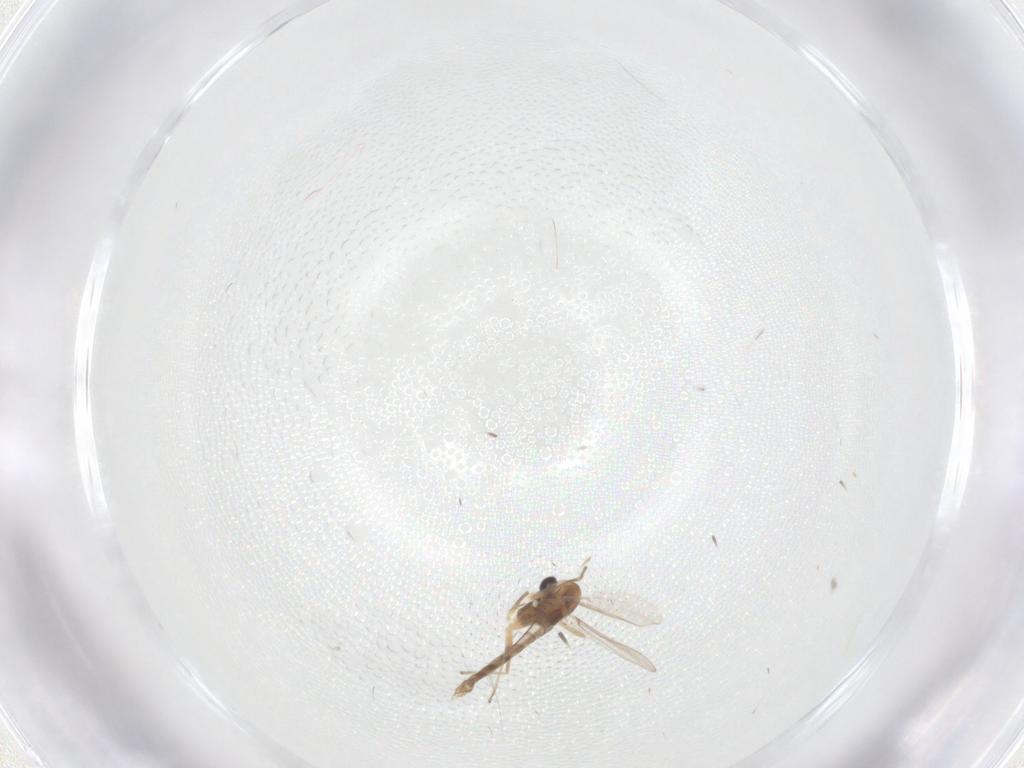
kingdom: Animalia
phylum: Arthropoda
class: Insecta
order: Diptera
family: Chironomidae
